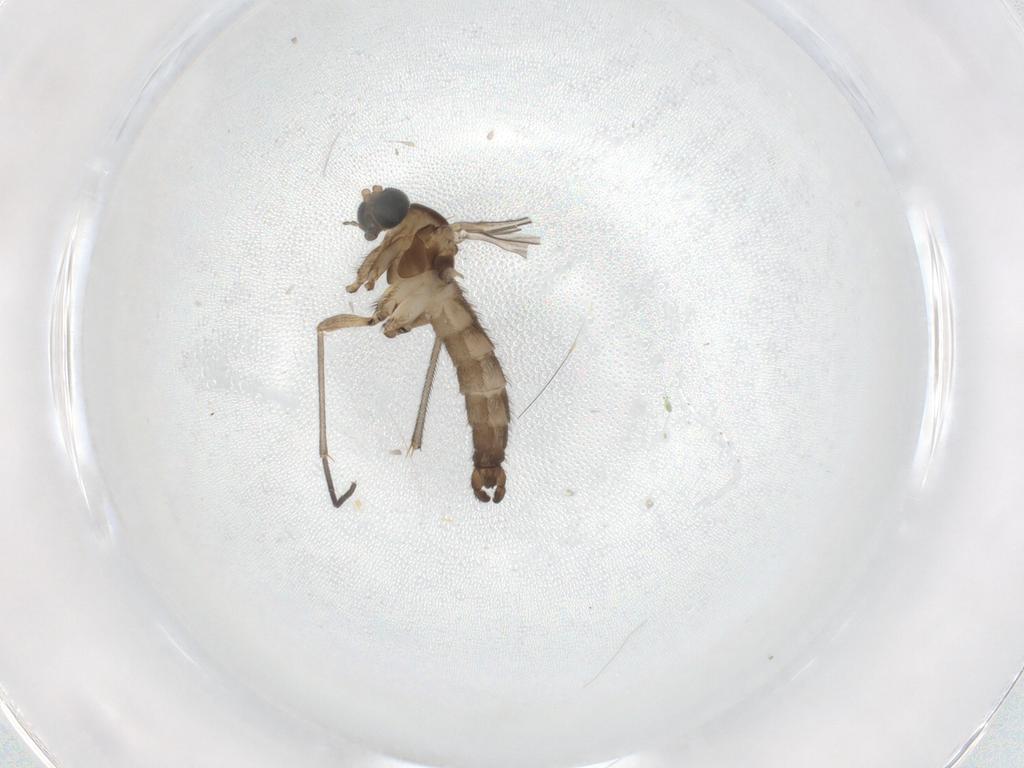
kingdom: Animalia
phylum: Arthropoda
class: Insecta
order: Diptera
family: Sciaridae
